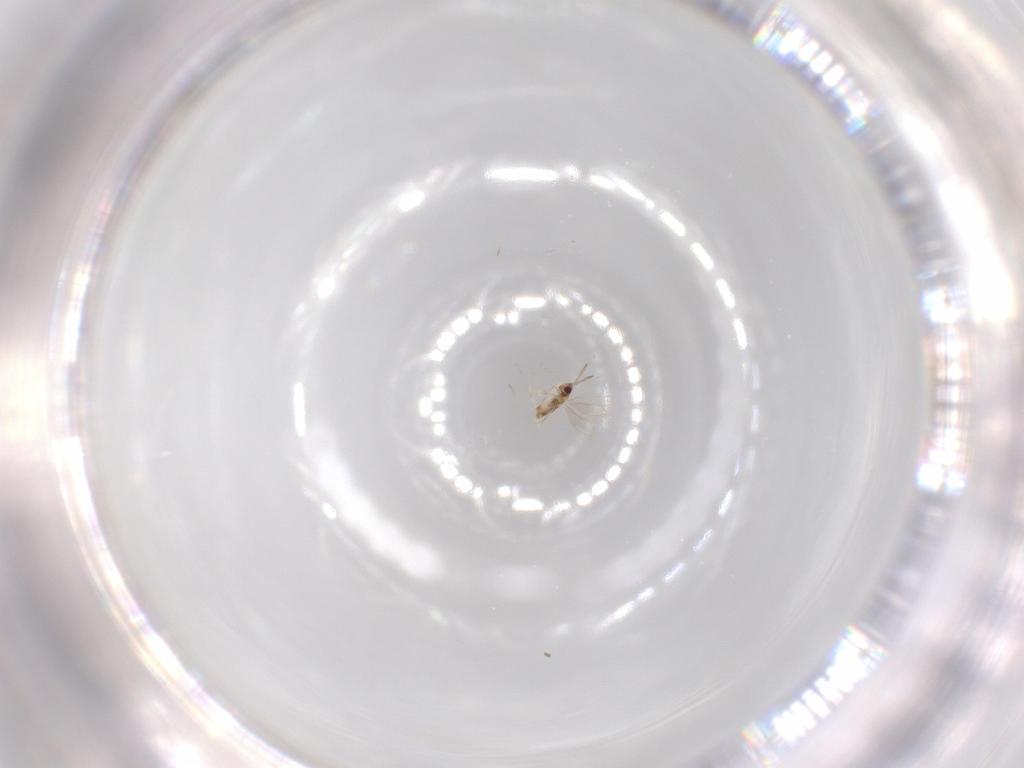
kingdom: Animalia
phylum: Arthropoda
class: Insecta
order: Hymenoptera
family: Aphelinidae
